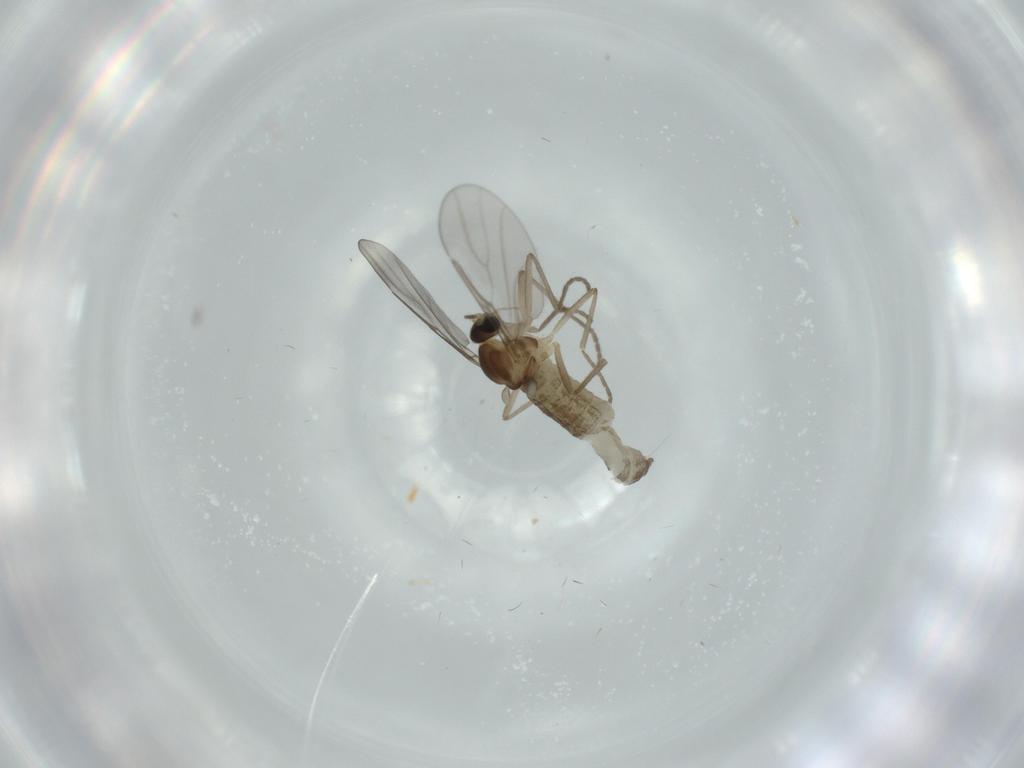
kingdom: Animalia
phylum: Arthropoda
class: Insecta
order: Diptera
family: Cecidomyiidae
